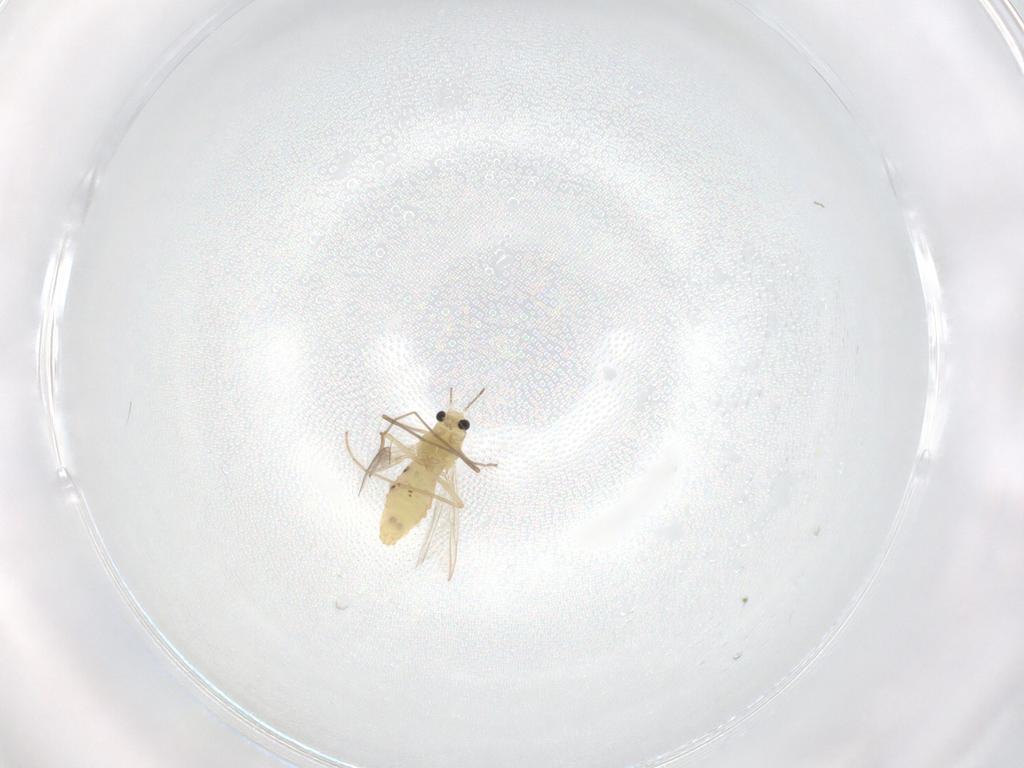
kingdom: Animalia
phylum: Arthropoda
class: Insecta
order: Diptera
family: Chironomidae
